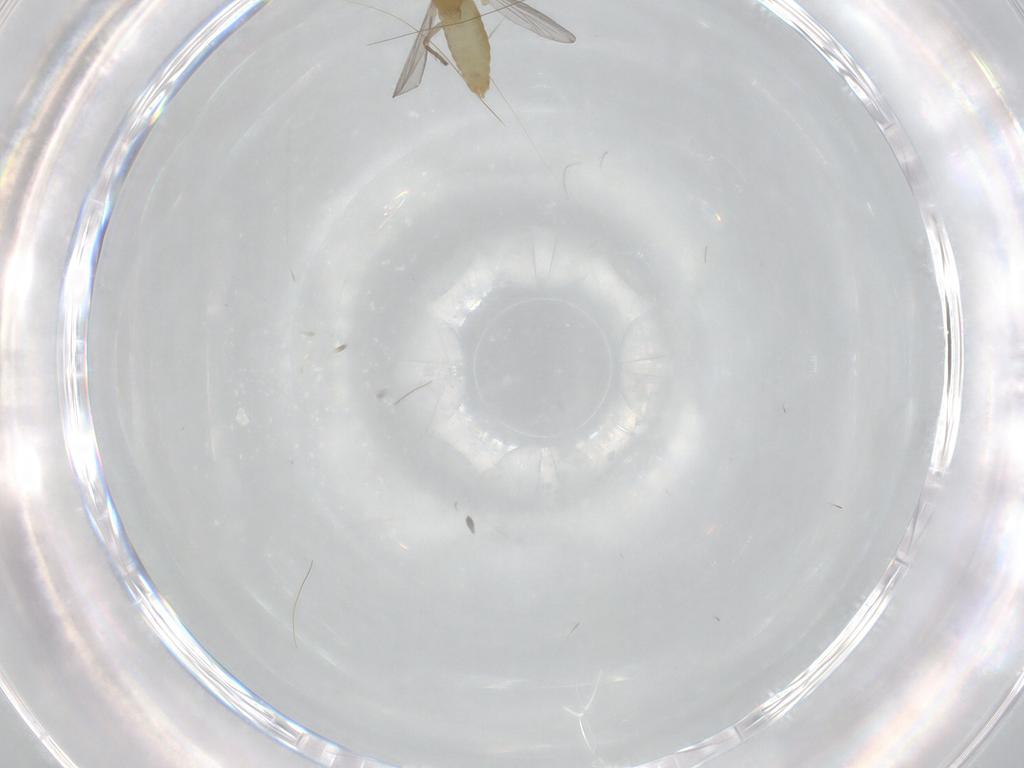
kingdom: Animalia
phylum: Arthropoda
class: Insecta
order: Diptera
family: Chironomidae
